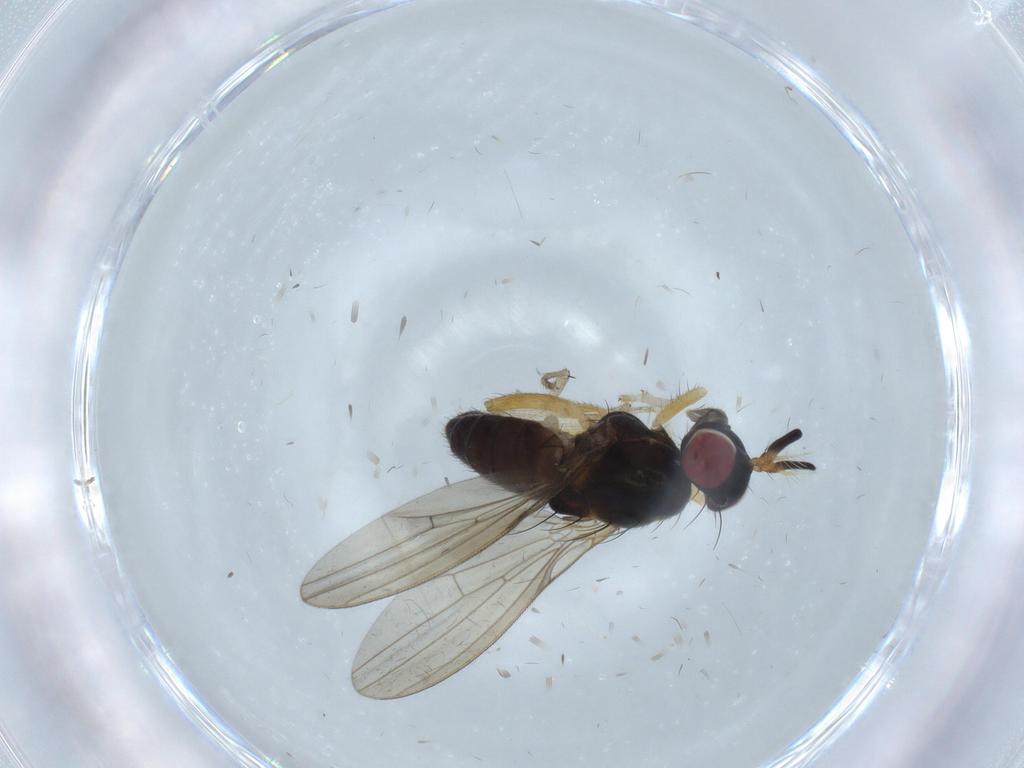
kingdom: Animalia
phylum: Arthropoda
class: Insecta
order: Diptera
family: Lauxaniidae
